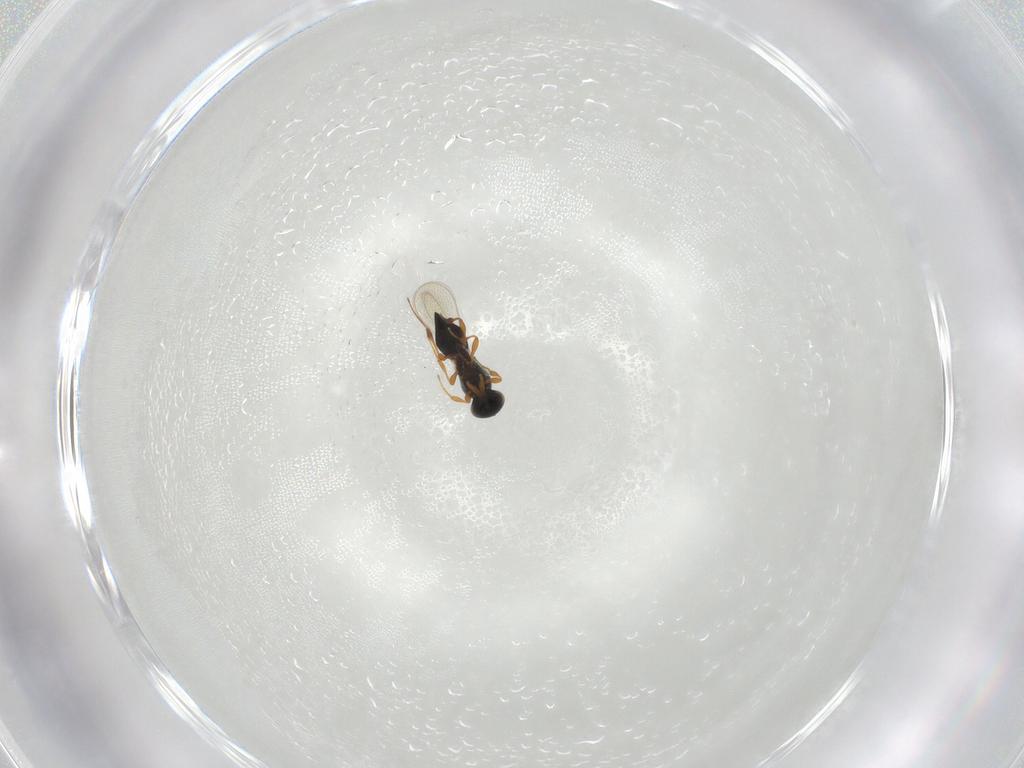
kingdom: Animalia
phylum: Arthropoda
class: Insecta
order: Hymenoptera
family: Platygastridae
